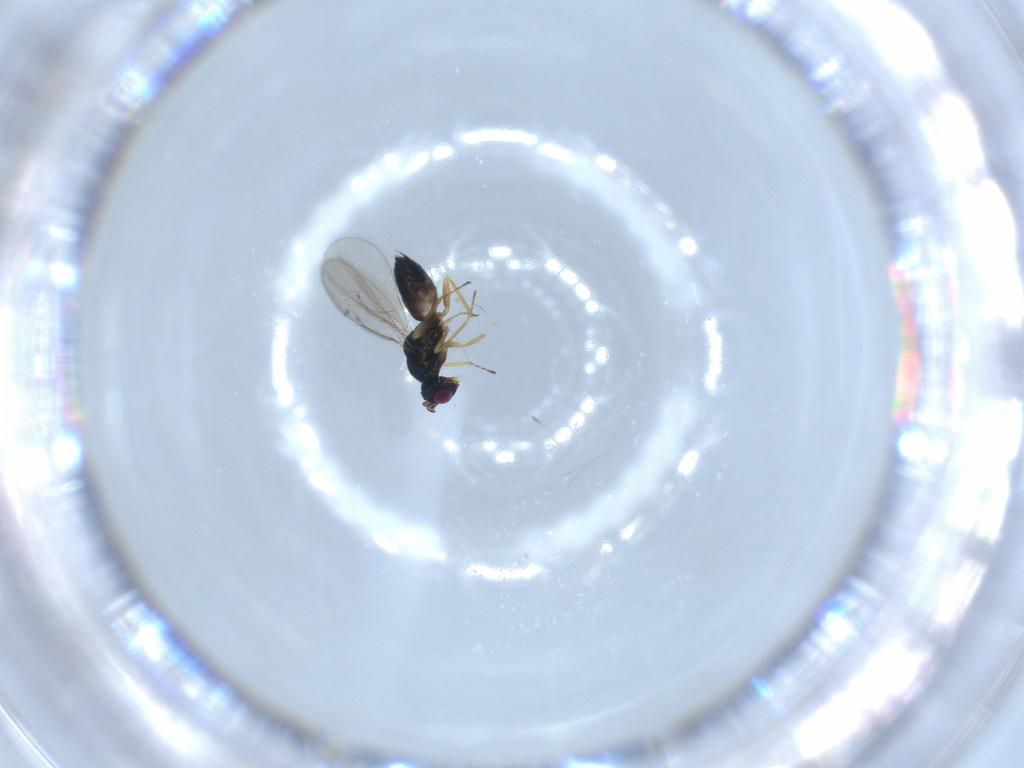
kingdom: Animalia
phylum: Arthropoda
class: Insecta
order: Hymenoptera
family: Eulophidae
